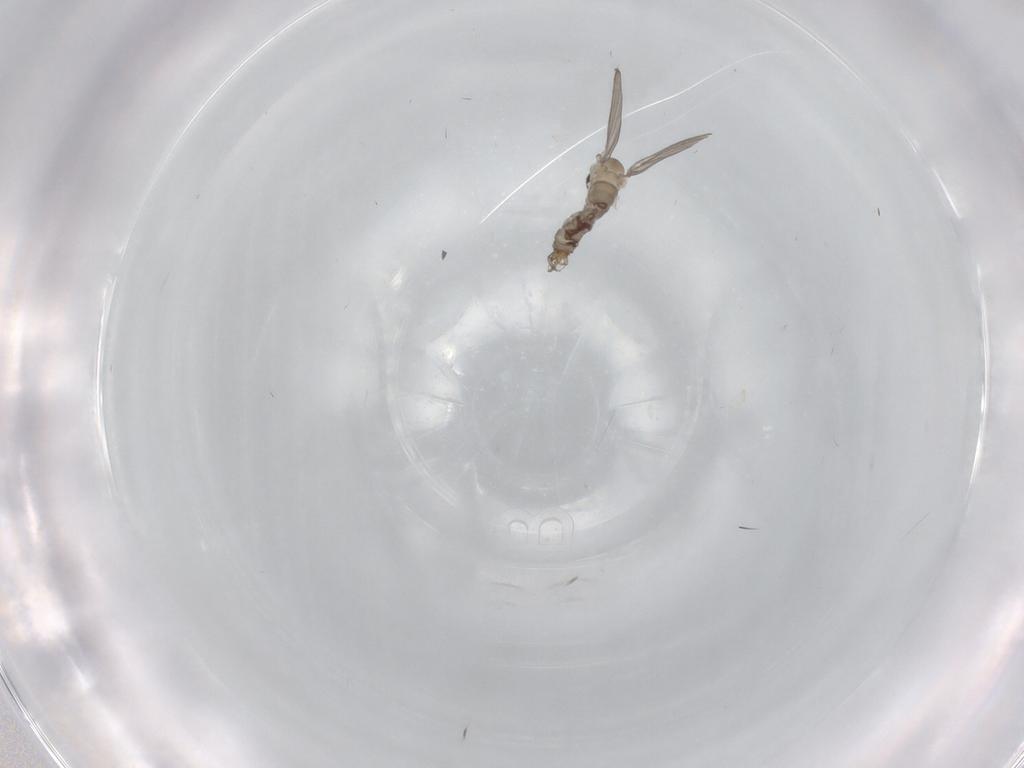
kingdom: Animalia
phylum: Arthropoda
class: Insecta
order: Diptera
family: Psychodidae
